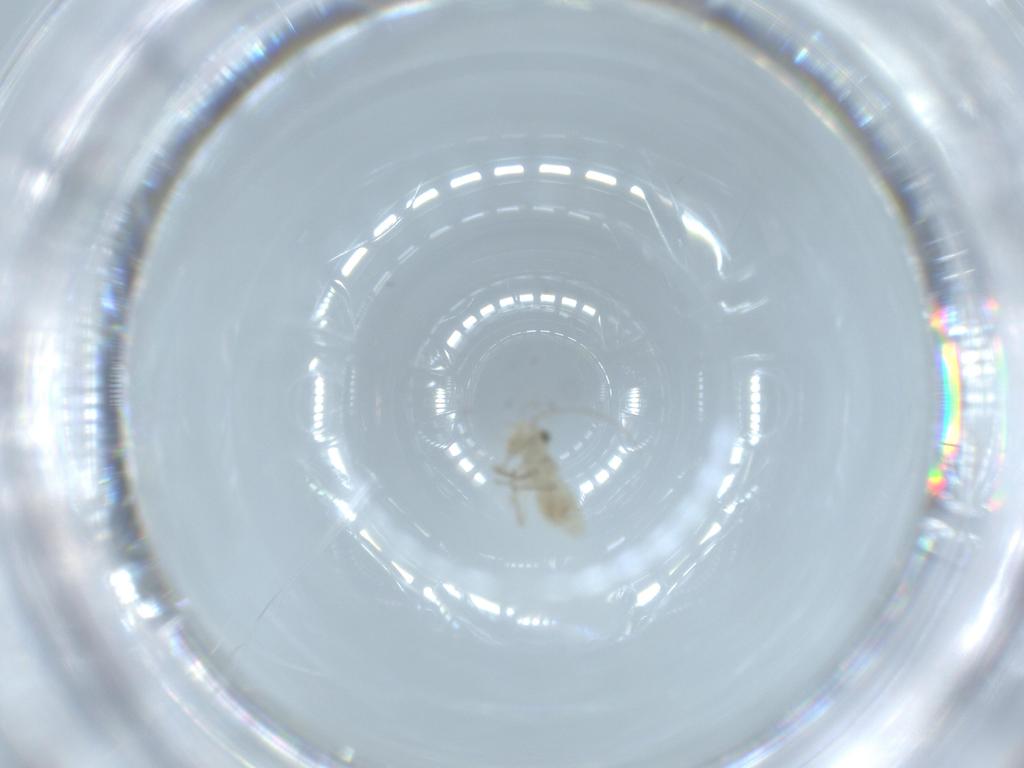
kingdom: Animalia
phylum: Arthropoda
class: Insecta
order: Psocodea
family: Caeciliusidae
